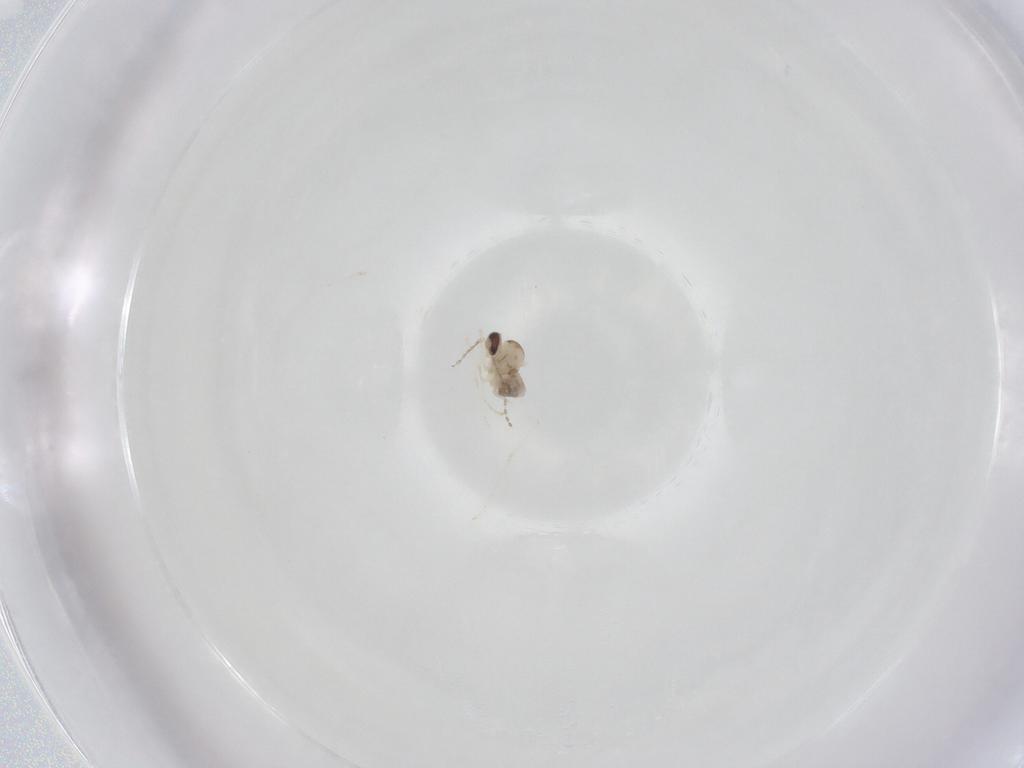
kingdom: Animalia
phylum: Arthropoda
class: Insecta
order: Diptera
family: Cecidomyiidae
